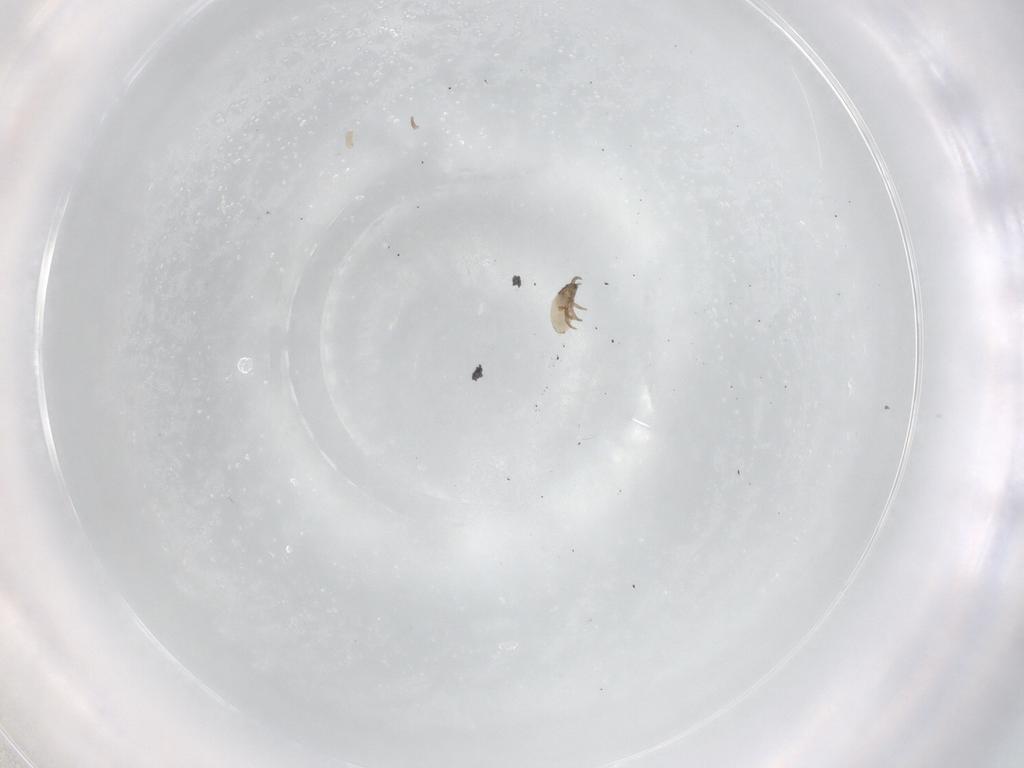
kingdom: Animalia
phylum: Arthropoda
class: Arachnida
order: Sarcoptiformes
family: Crotoniidae
